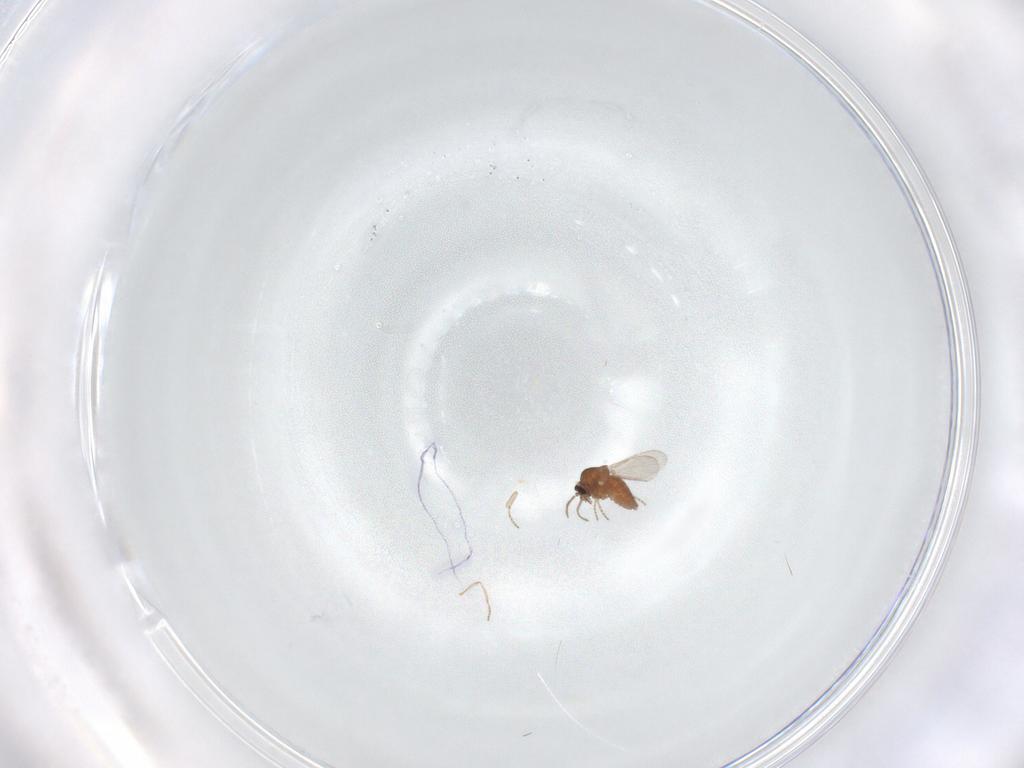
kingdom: Animalia
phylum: Arthropoda
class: Insecta
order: Diptera
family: Ceratopogonidae
